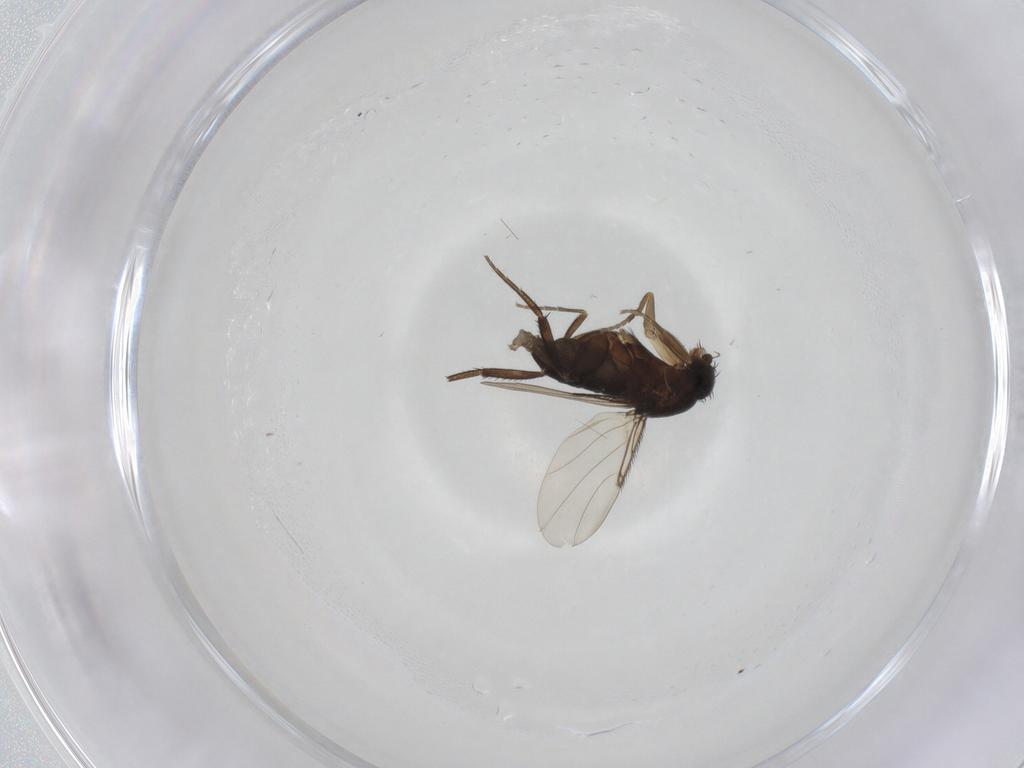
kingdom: Animalia
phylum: Arthropoda
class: Insecta
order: Diptera
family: Phoridae
